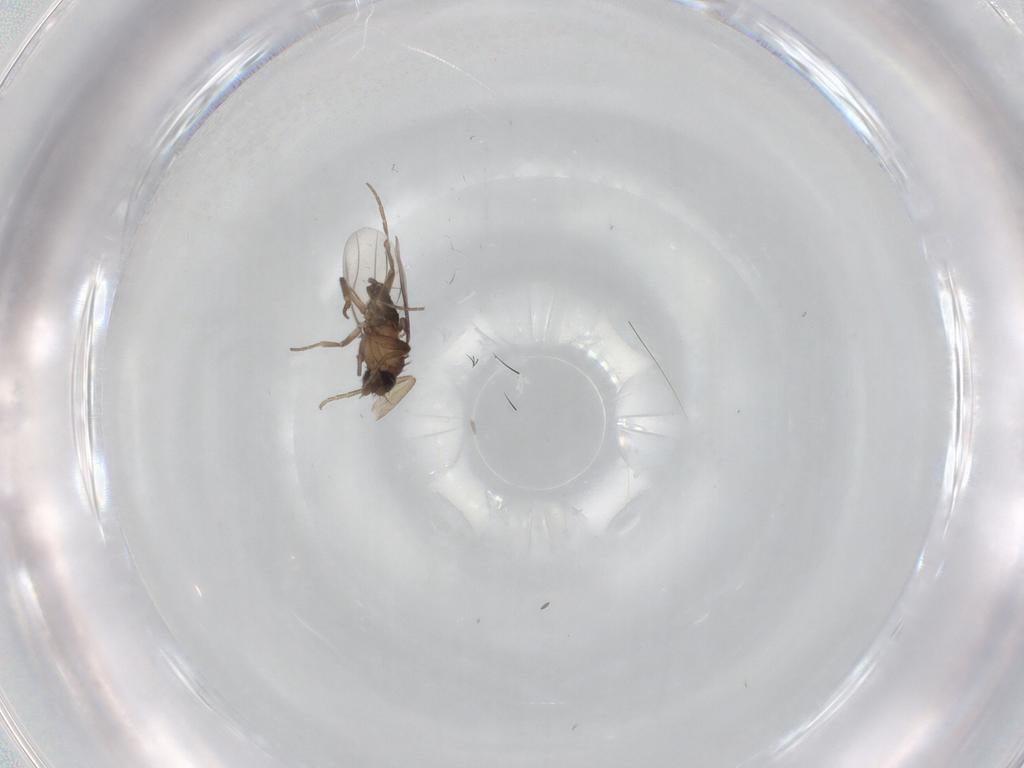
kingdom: Animalia
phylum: Arthropoda
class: Insecta
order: Diptera
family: Phoridae
